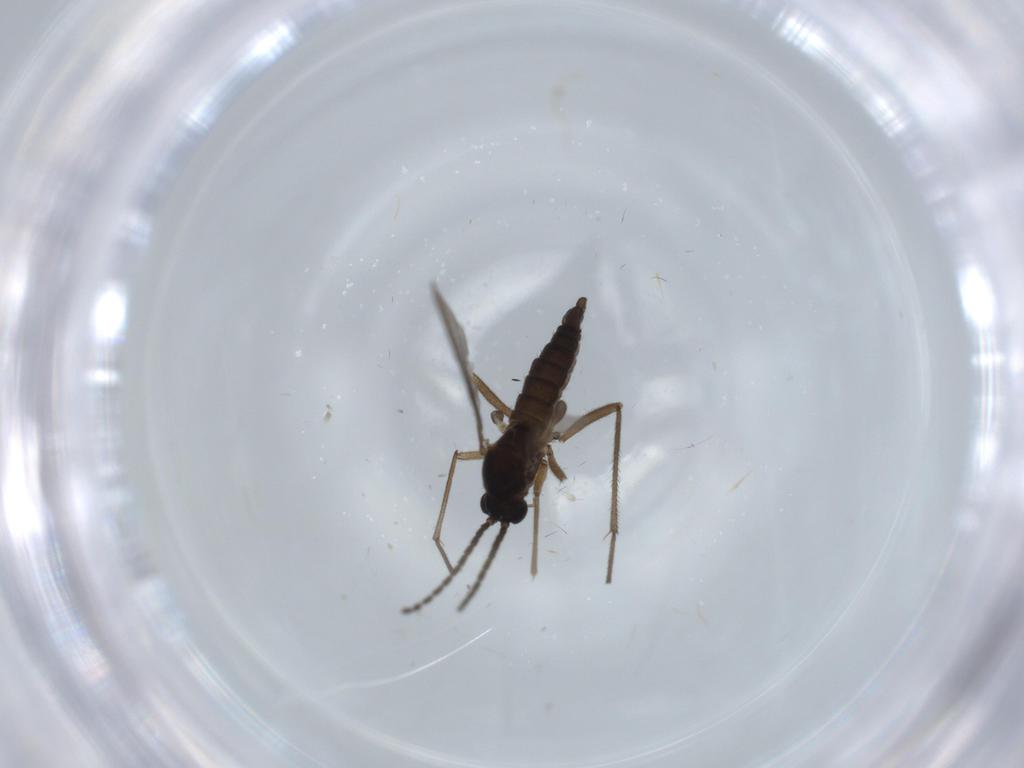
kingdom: Animalia
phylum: Arthropoda
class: Insecta
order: Diptera
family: Sciaridae
